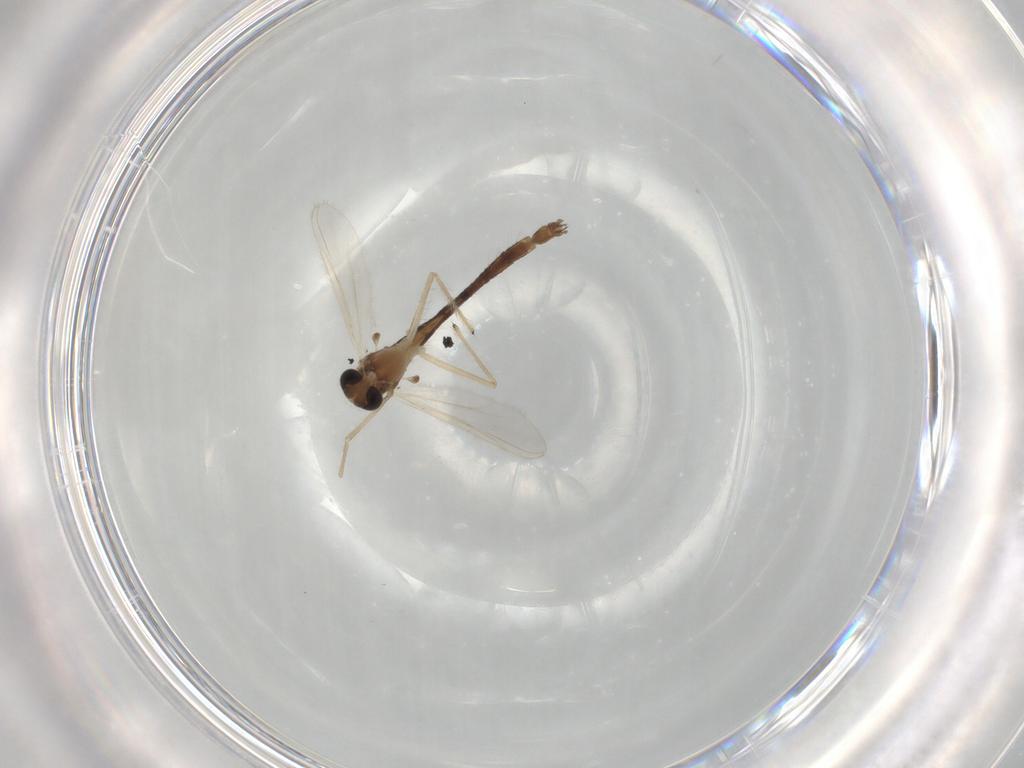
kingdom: Animalia
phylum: Arthropoda
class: Insecta
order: Diptera
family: Chironomidae
